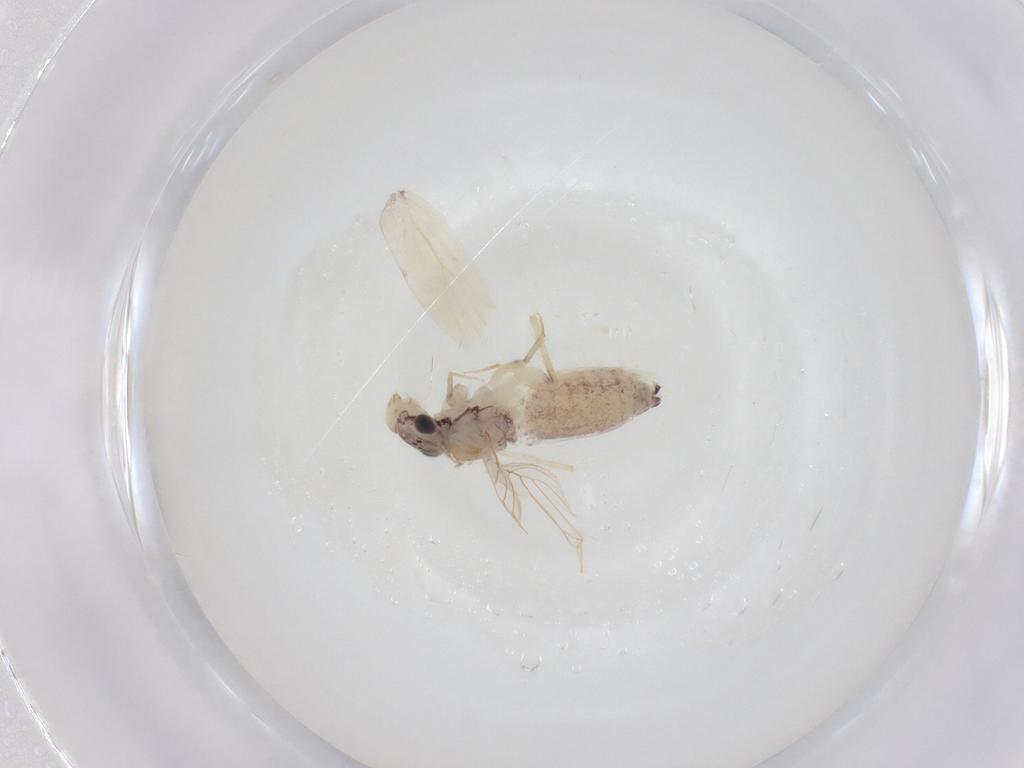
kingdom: Animalia
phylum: Arthropoda
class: Insecta
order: Psocodea
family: Lepidopsocidae
